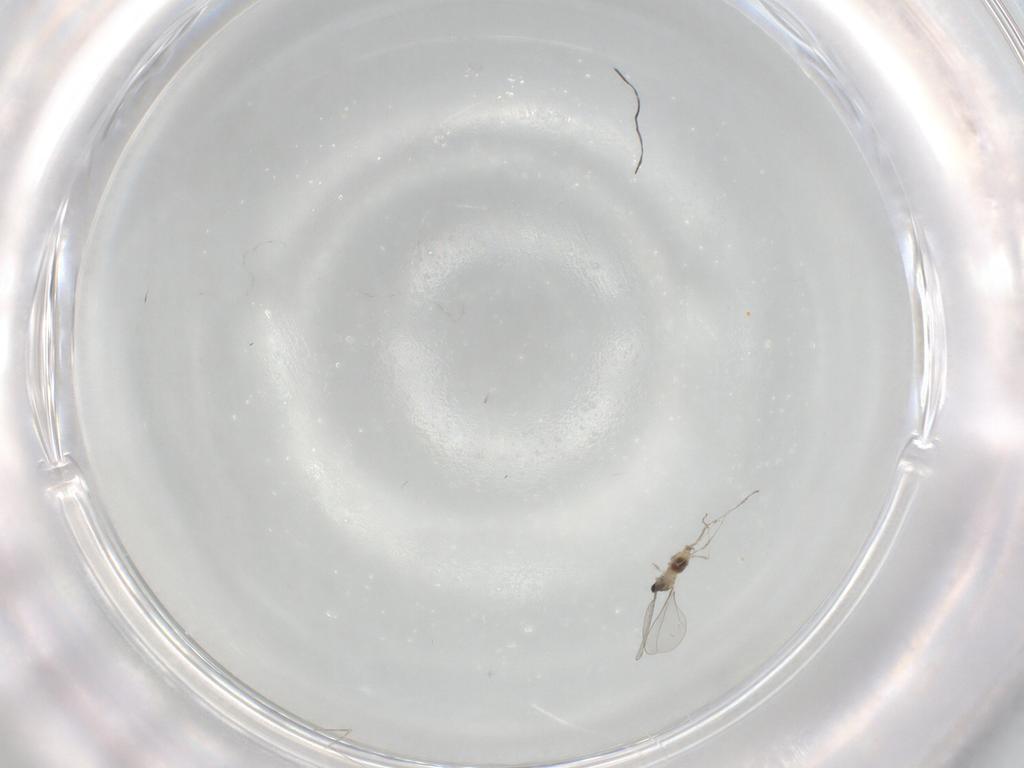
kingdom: Animalia
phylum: Arthropoda
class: Insecta
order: Diptera
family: Cecidomyiidae
